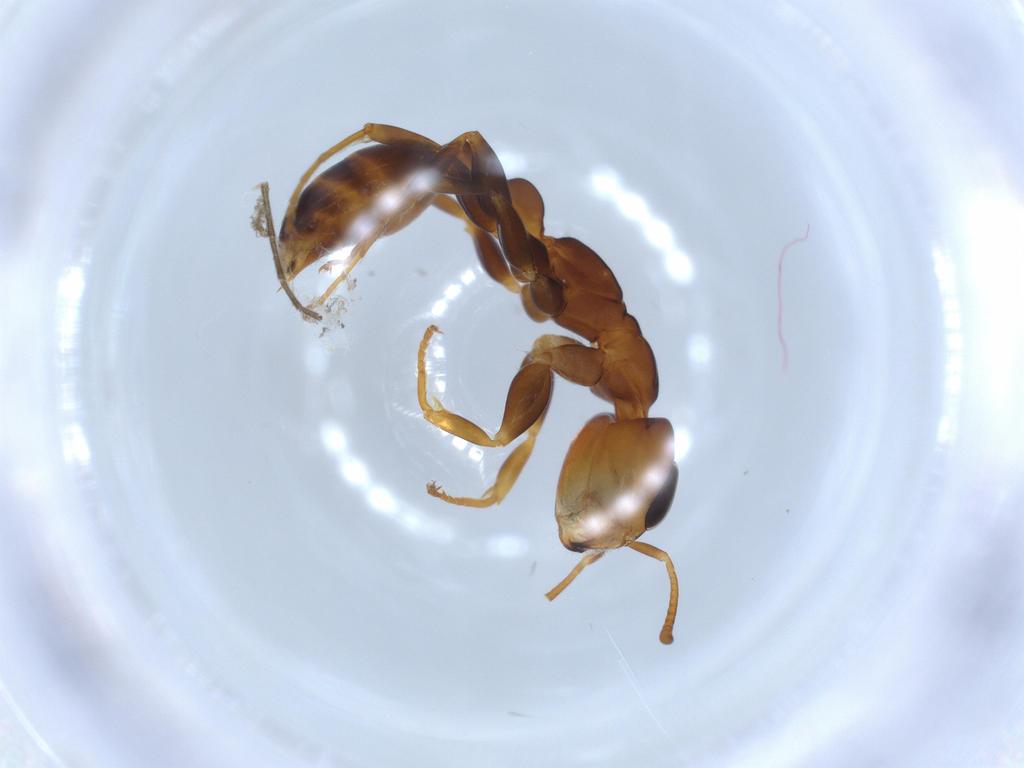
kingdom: Animalia
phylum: Arthropoda
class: Insecta
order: Hymenoptera
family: Formicidae
